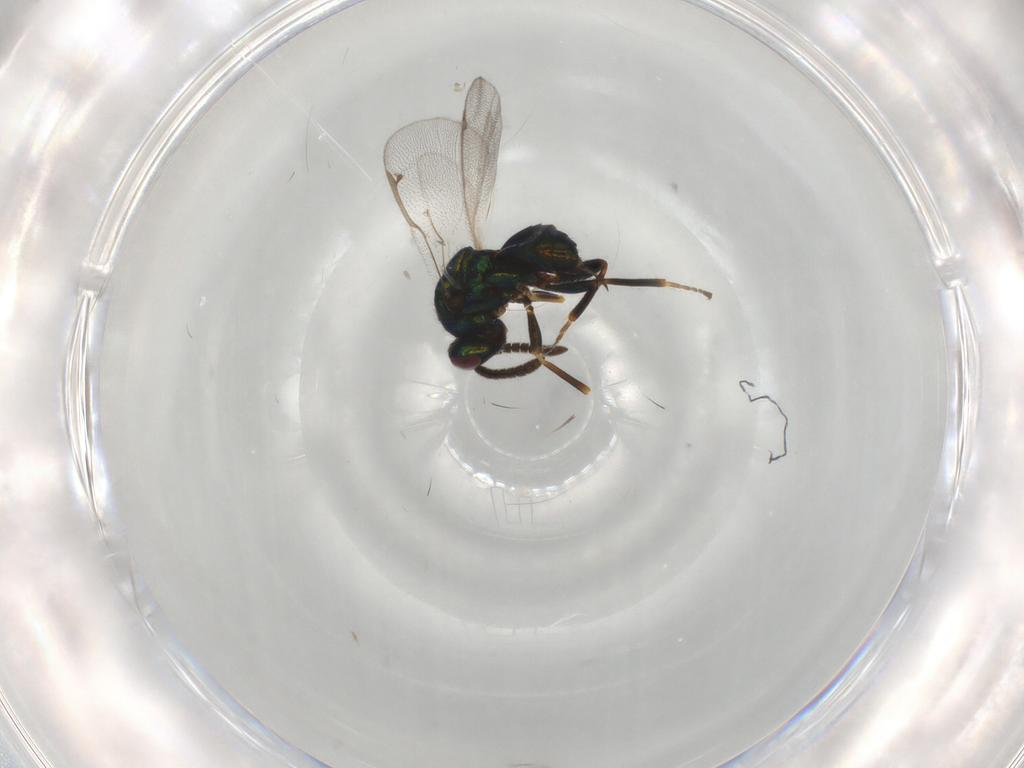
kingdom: Animalia
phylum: Arthropoda
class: Insecta
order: Hymenoptera
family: Torymidae
